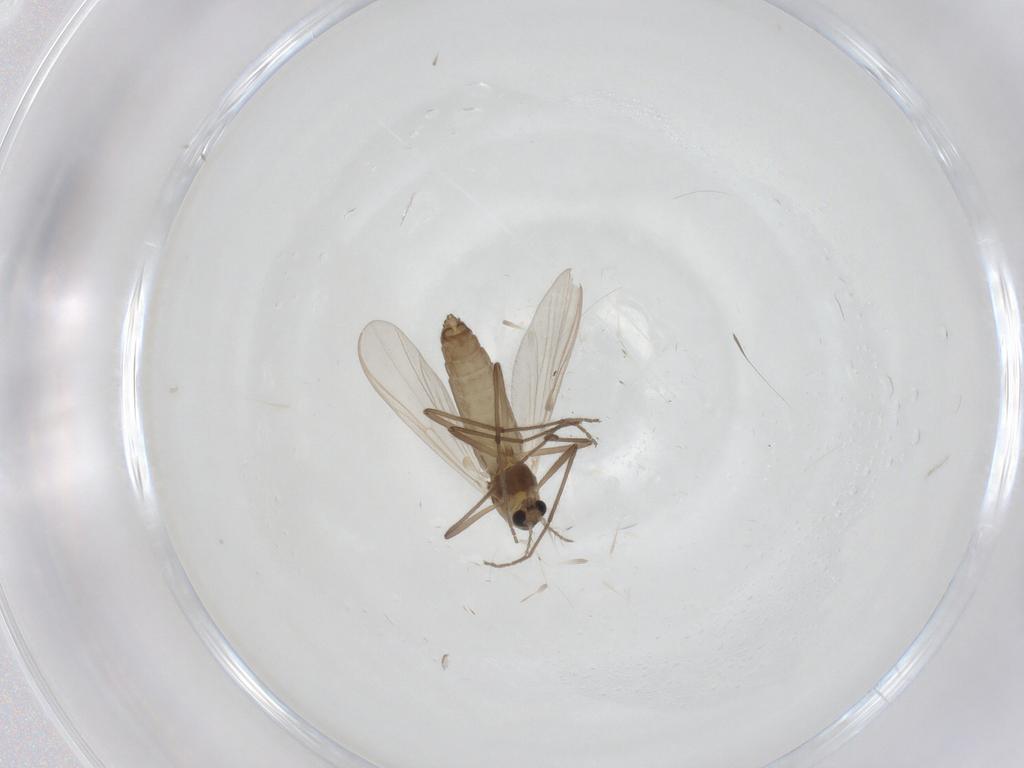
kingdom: Animalia
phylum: Arthropoda
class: Insecta
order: Diptera
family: Chironomidae
